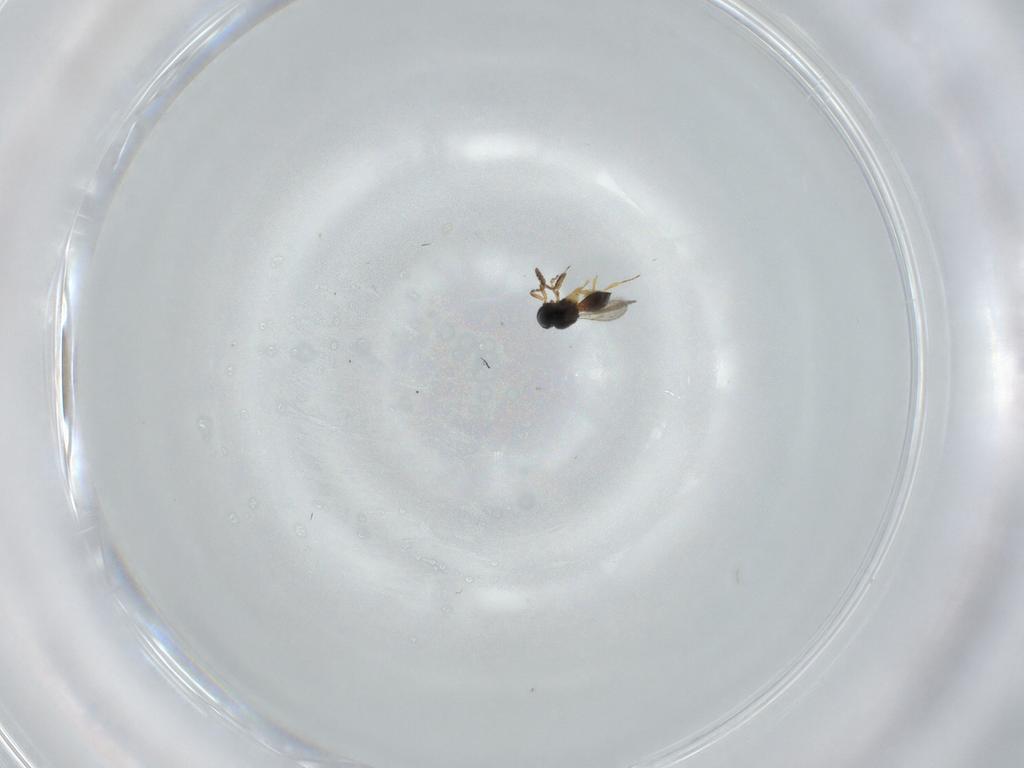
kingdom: Animalia
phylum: Arthropoda
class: Insecta
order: Hymenoptera
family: Scelionidae
